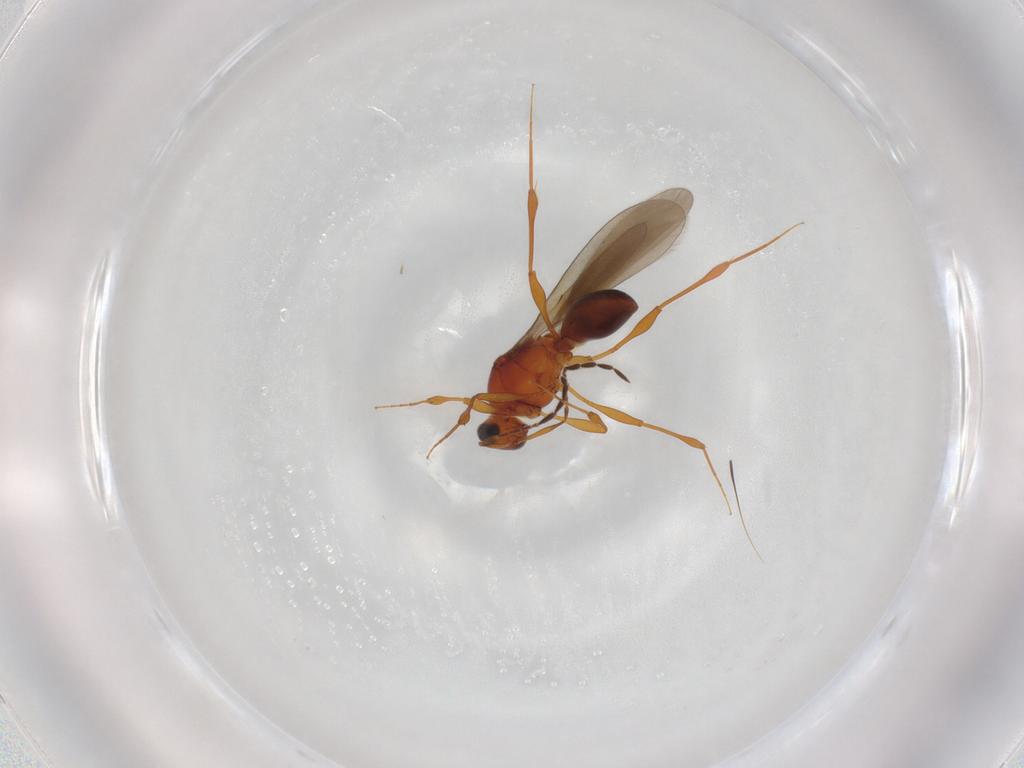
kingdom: Animalia
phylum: Arthropoda
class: Insecta
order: Hymenoptera
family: Platygastridae
